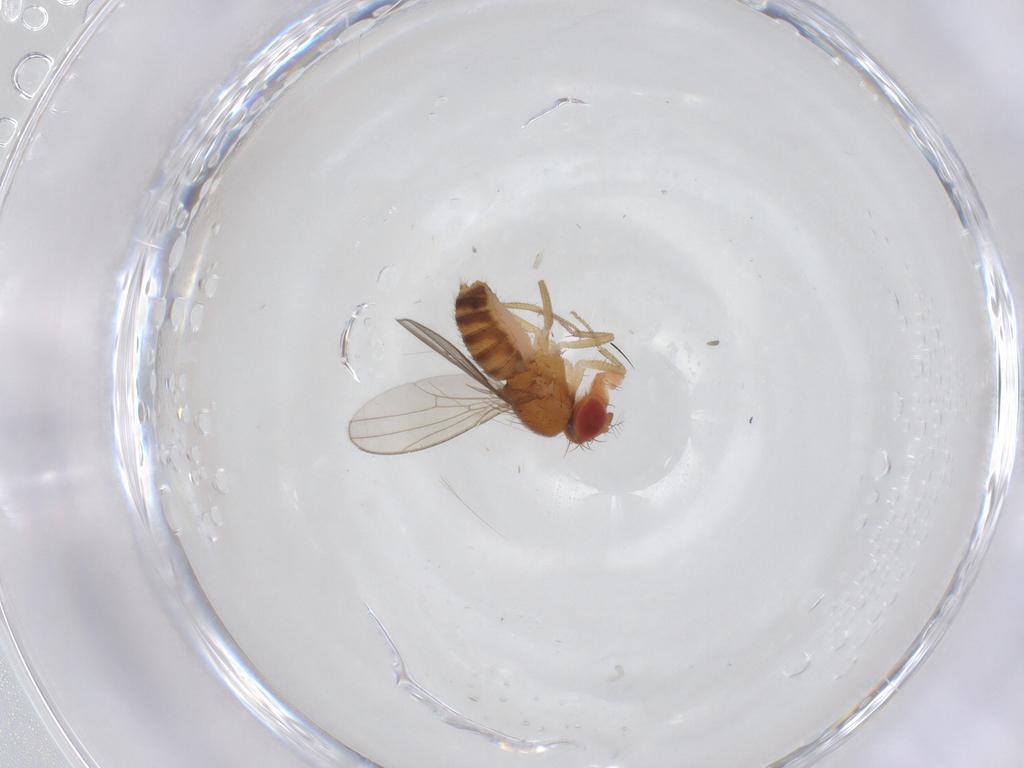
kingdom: Animalia
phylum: Arthropoda
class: Insecta
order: Diptera
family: Drosophilidae
